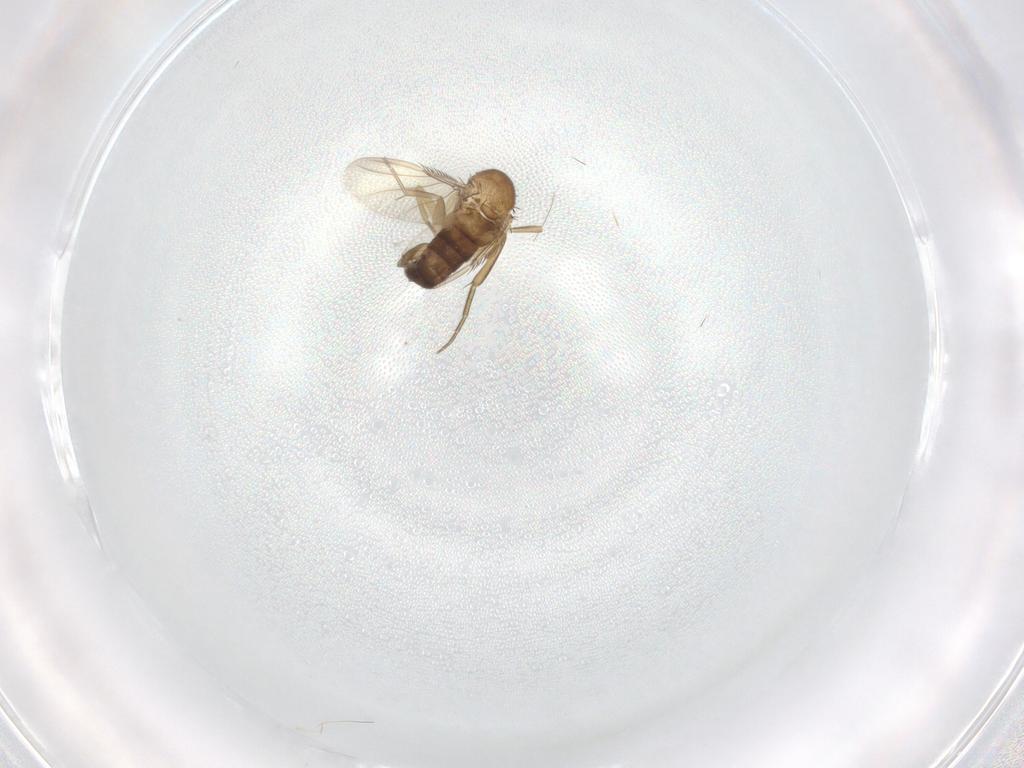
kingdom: Animalia
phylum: Arthropoda
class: Insecta
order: Diptera
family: Phoridae
